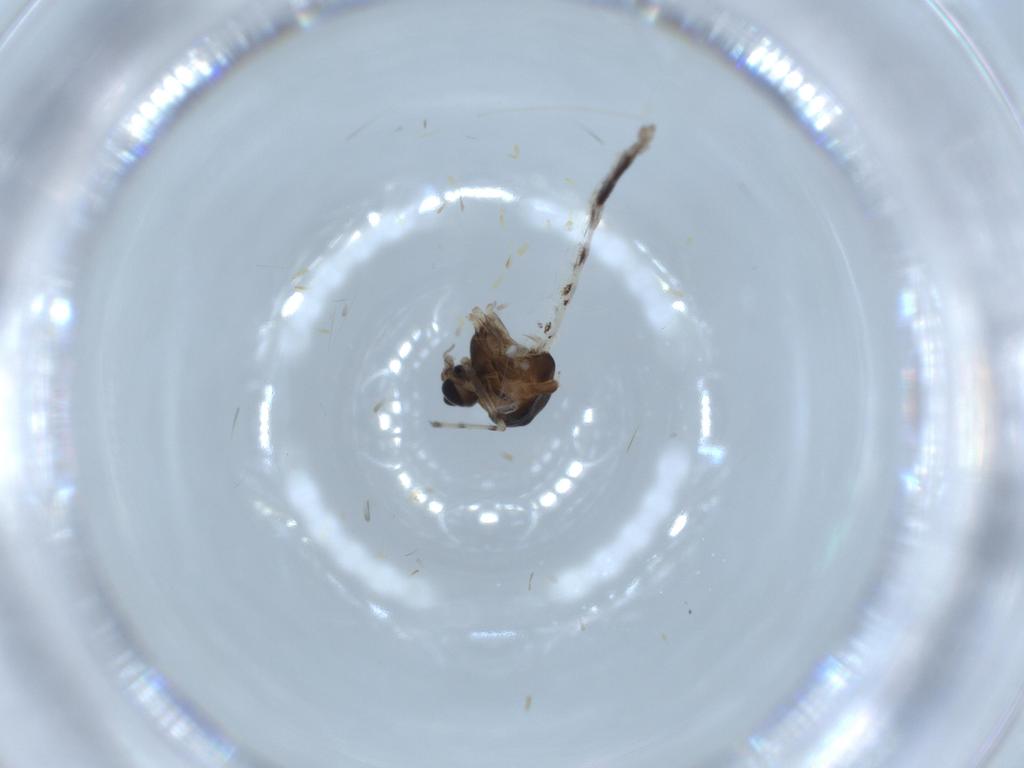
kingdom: Animalia
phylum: Arthropoda
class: Insecta
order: Diptera
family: Chironomidae
